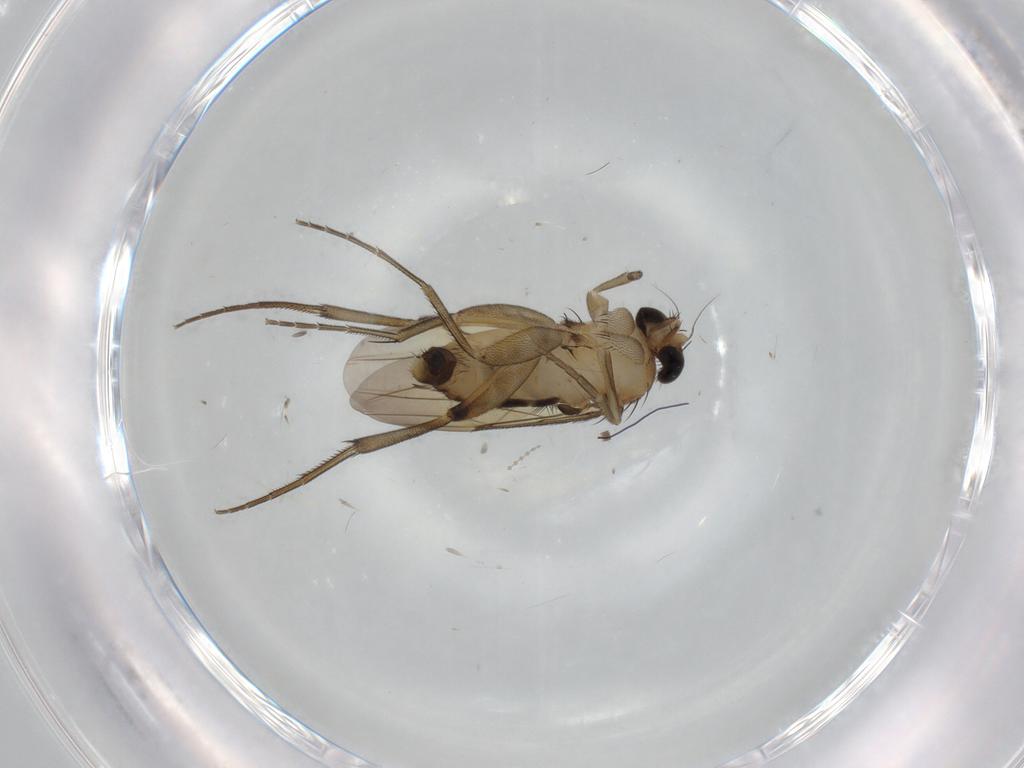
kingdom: Animalia
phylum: Arthropoda
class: Insecta
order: Diptera
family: Phoridae
